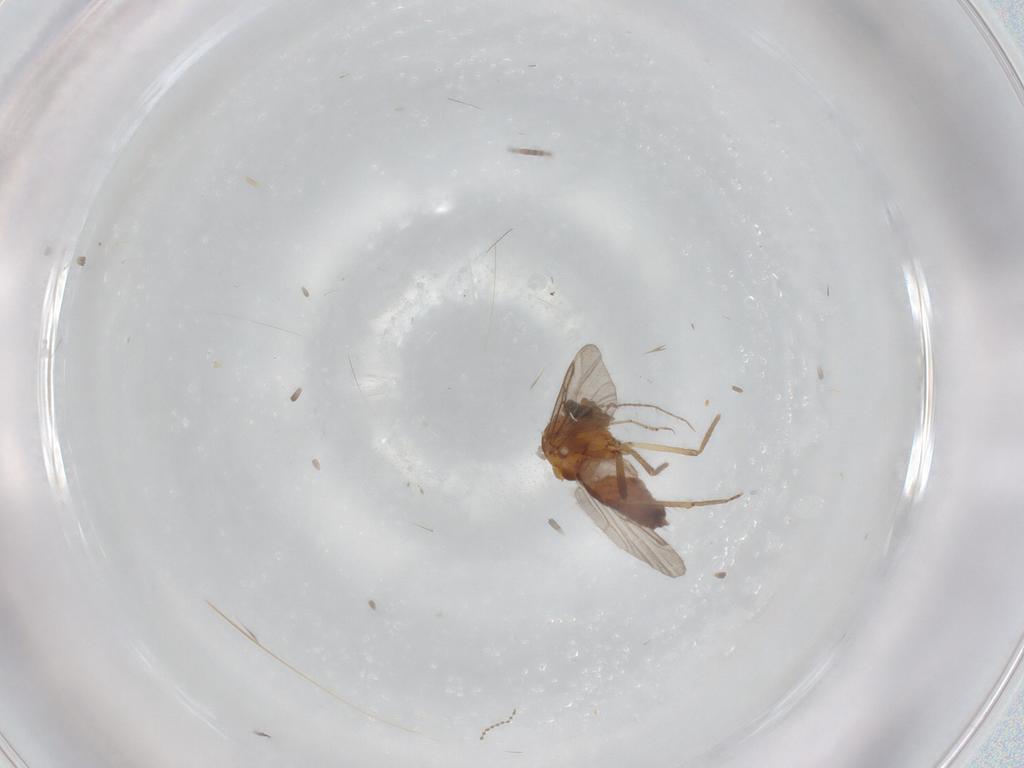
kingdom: Animalia
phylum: Arthropoda
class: Insecta
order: Diptera
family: Ceratopogonidae
